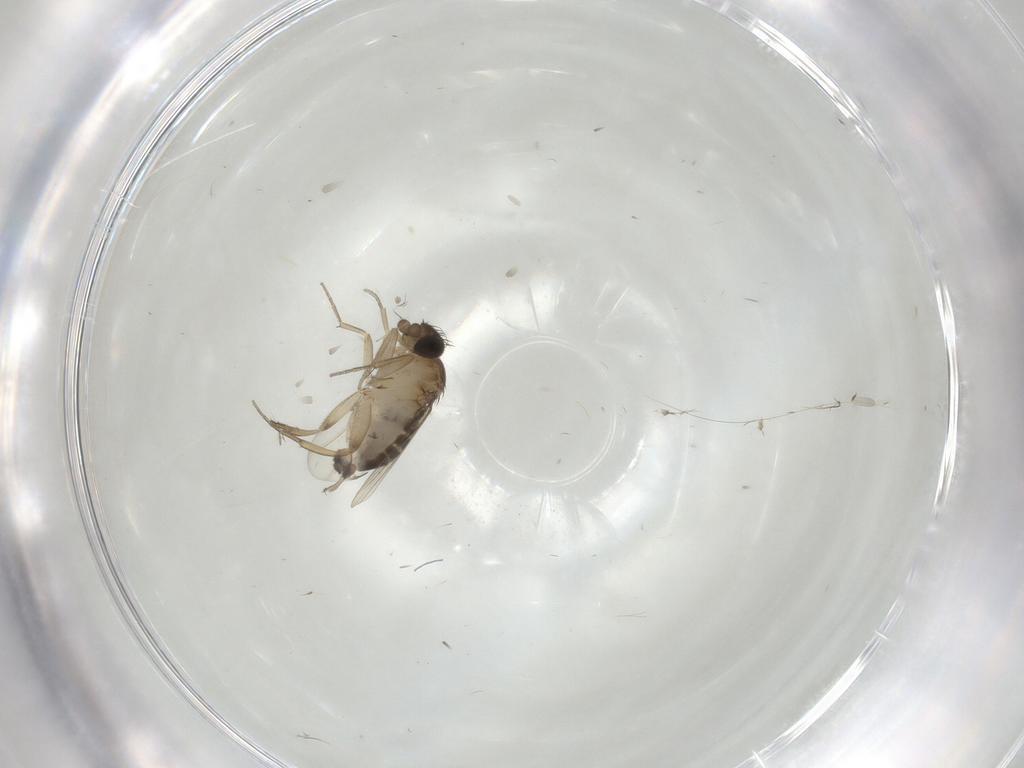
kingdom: Animalia
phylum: Arthropoda
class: Insecta
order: Diptera
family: Phoridae
